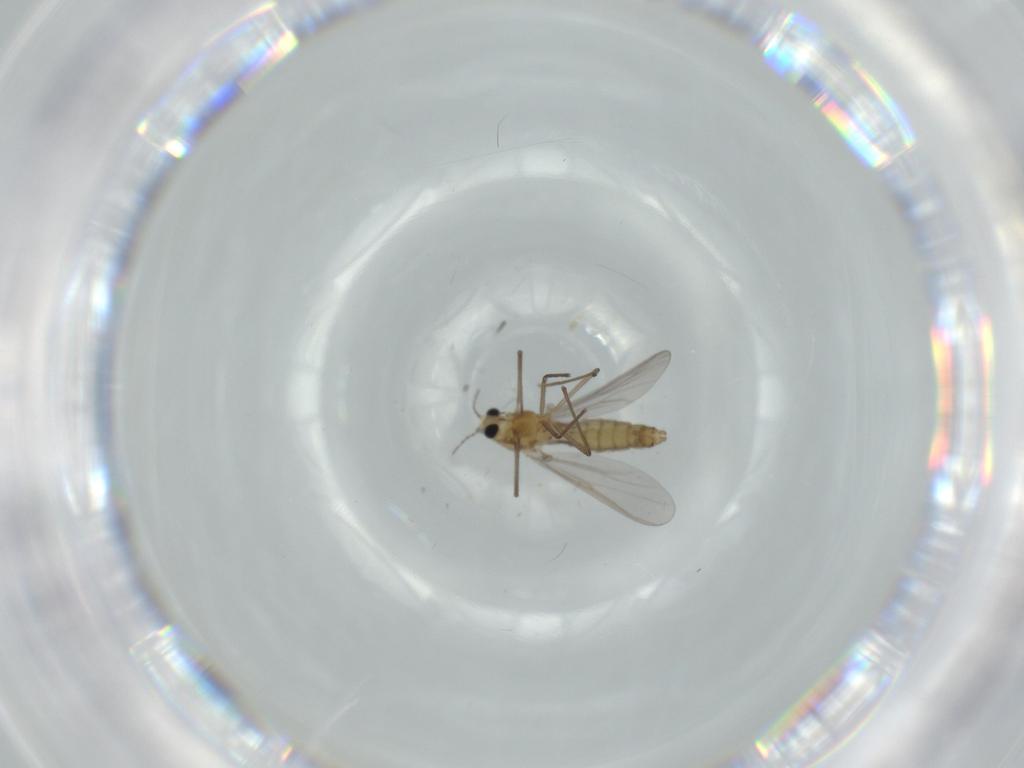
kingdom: Animalia
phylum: Arthropoda
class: Insecta
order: Diptera
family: Chironomidae
